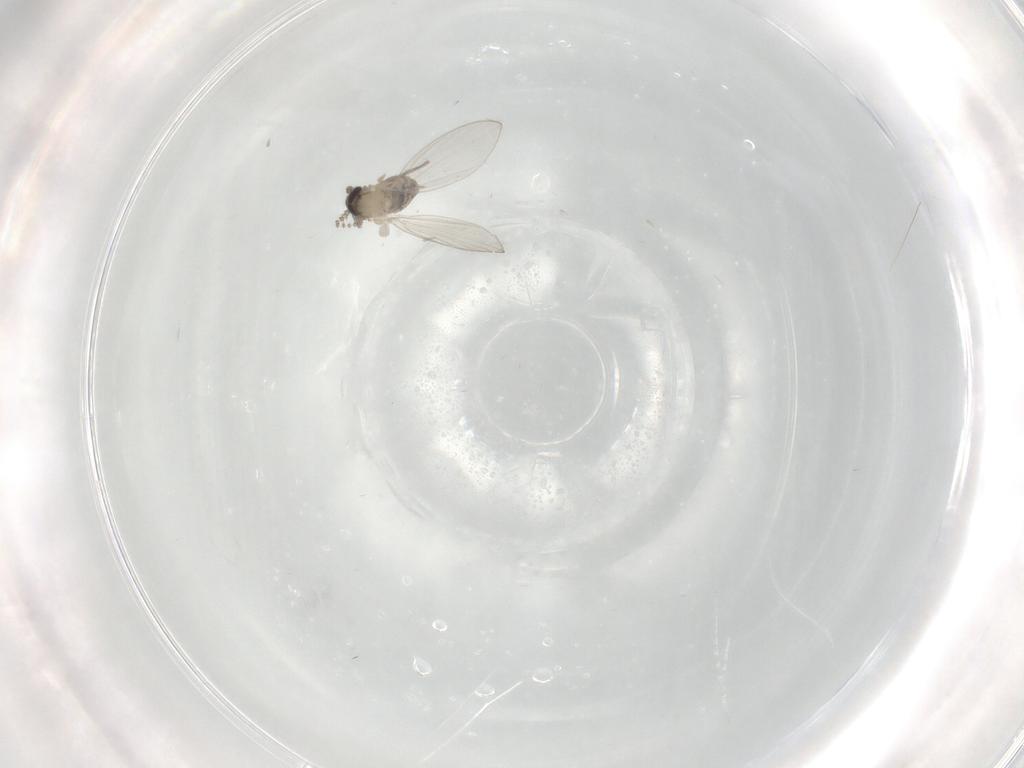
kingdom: Animalia
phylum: Arthropoda
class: Insecta
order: Diptera
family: Psychodidae
